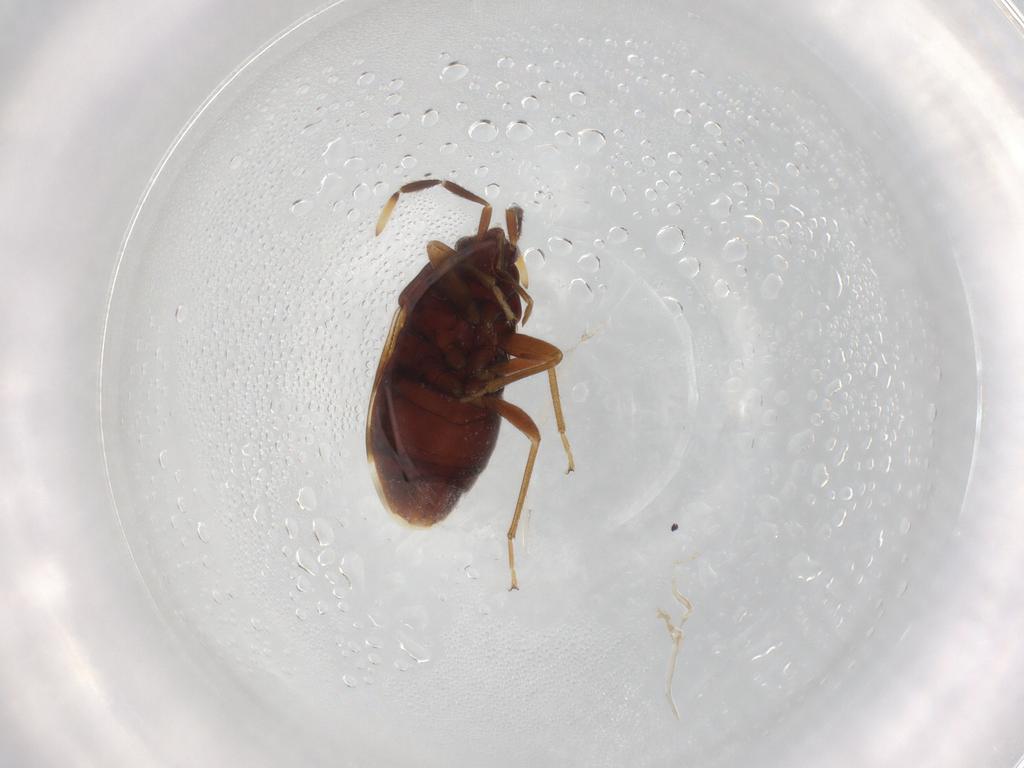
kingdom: Animalia
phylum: Arthropoda
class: Insecta
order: Hemiptera
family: Rhyparochromidae
